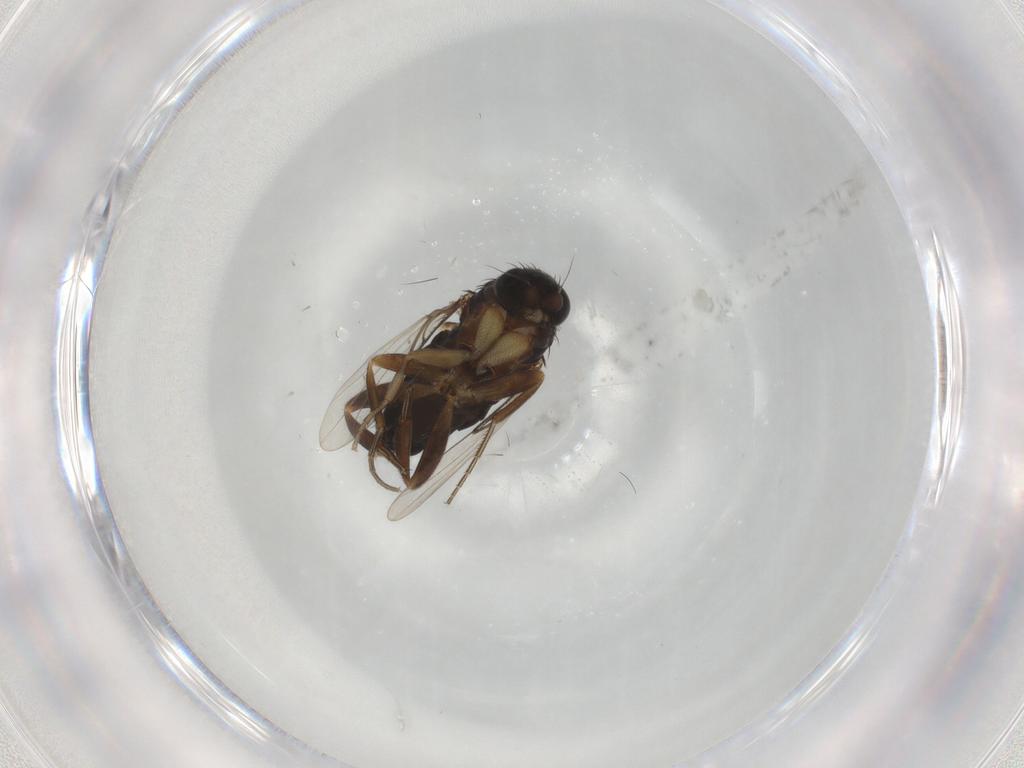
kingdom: Animalia
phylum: Arthropoda
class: Insecta
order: Diptera
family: Phoridae
